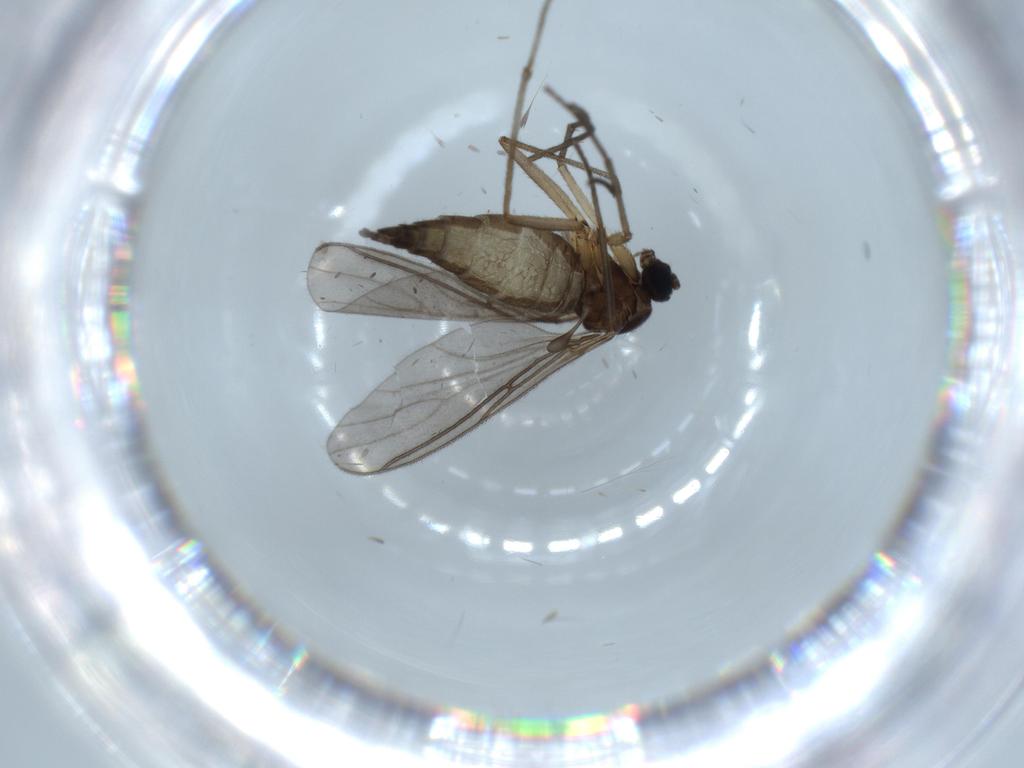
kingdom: Animalia
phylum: Arthropoda
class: Insecta
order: Diptera
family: Sciaridae
